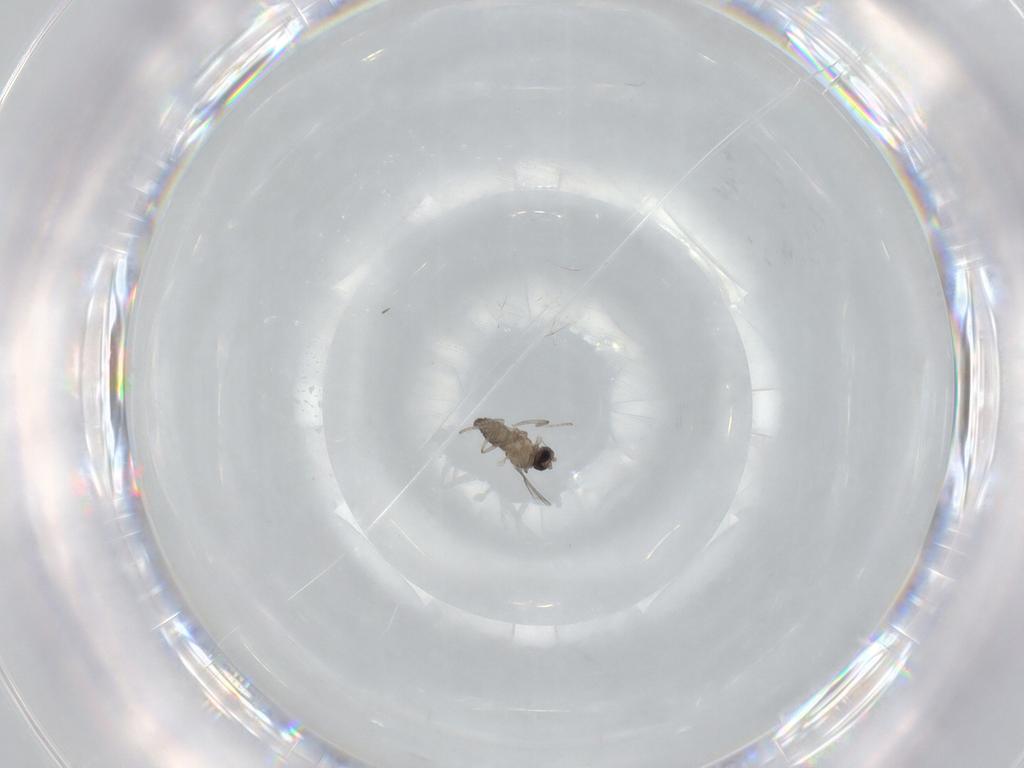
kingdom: Animalia
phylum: Arthropoda
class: Insecta
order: Diptera
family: Cecidomyiidae
